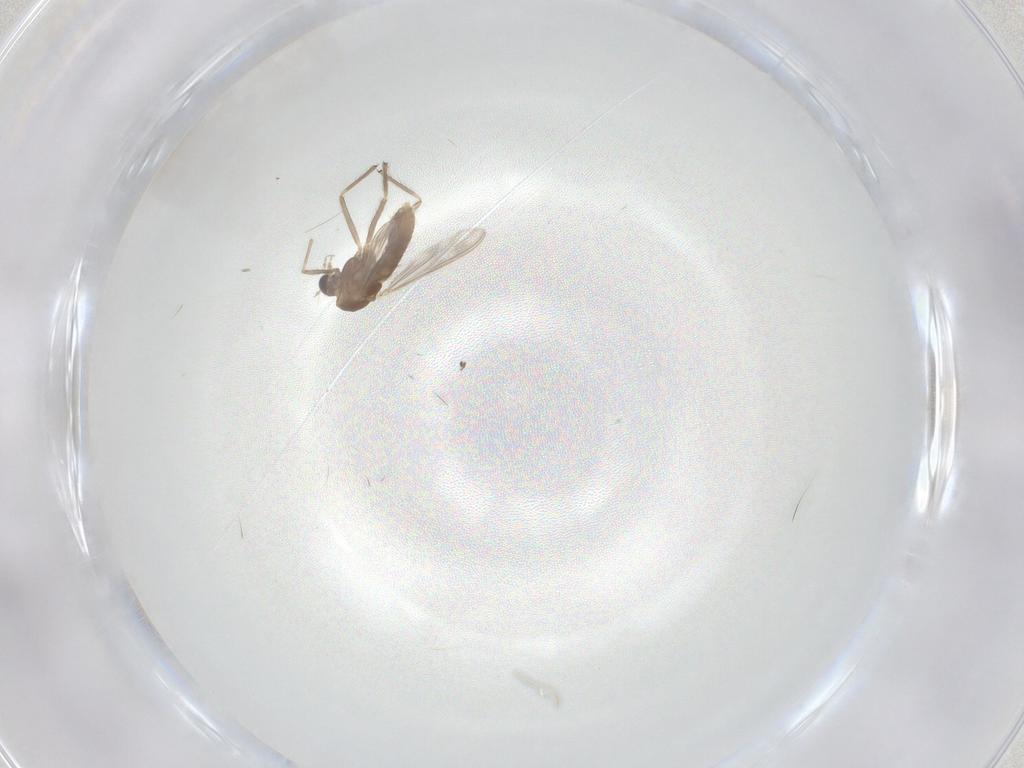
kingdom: Animalia
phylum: Arthropoda
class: Insecta
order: Diptera
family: Chironomidae
